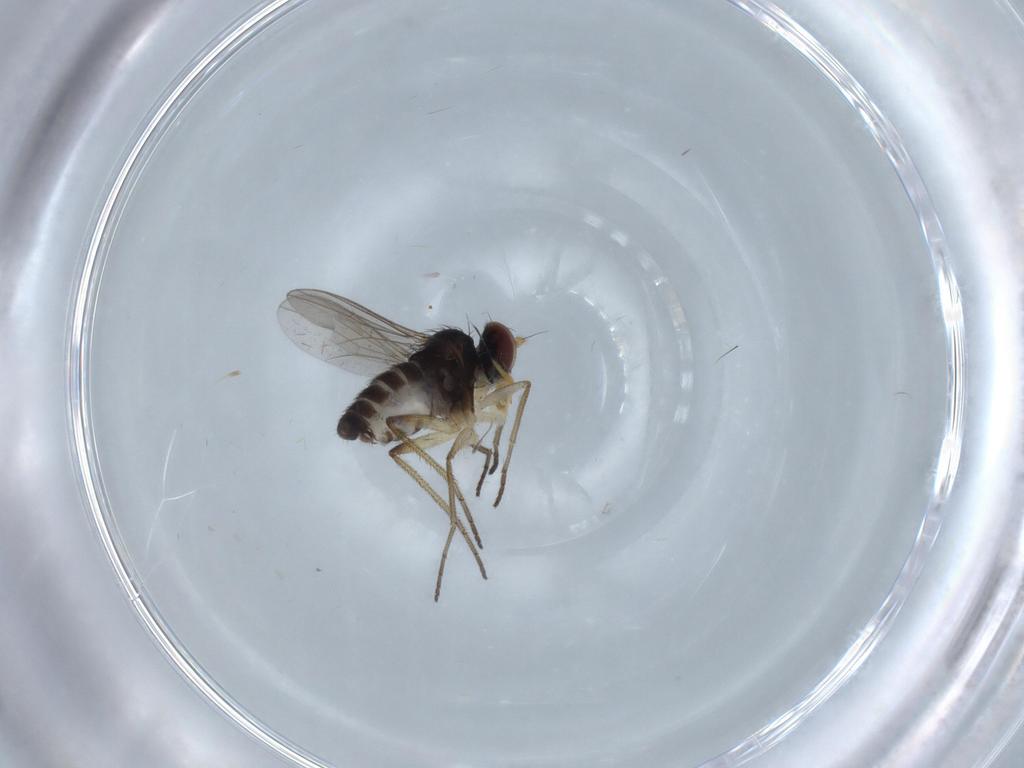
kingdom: Animalia
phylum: Arthropoda
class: Insecta
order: Diptera
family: Dolichopodidae
